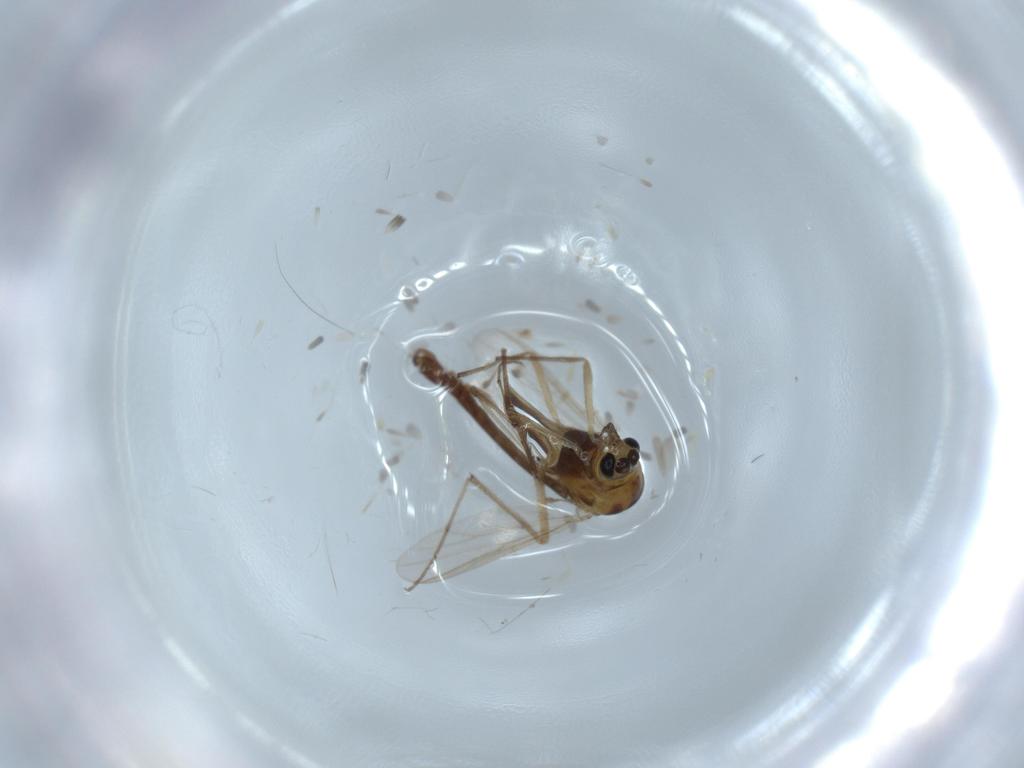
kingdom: Animalia
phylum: Arthropoda
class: Insecta
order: Diptera
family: Chironomidae
